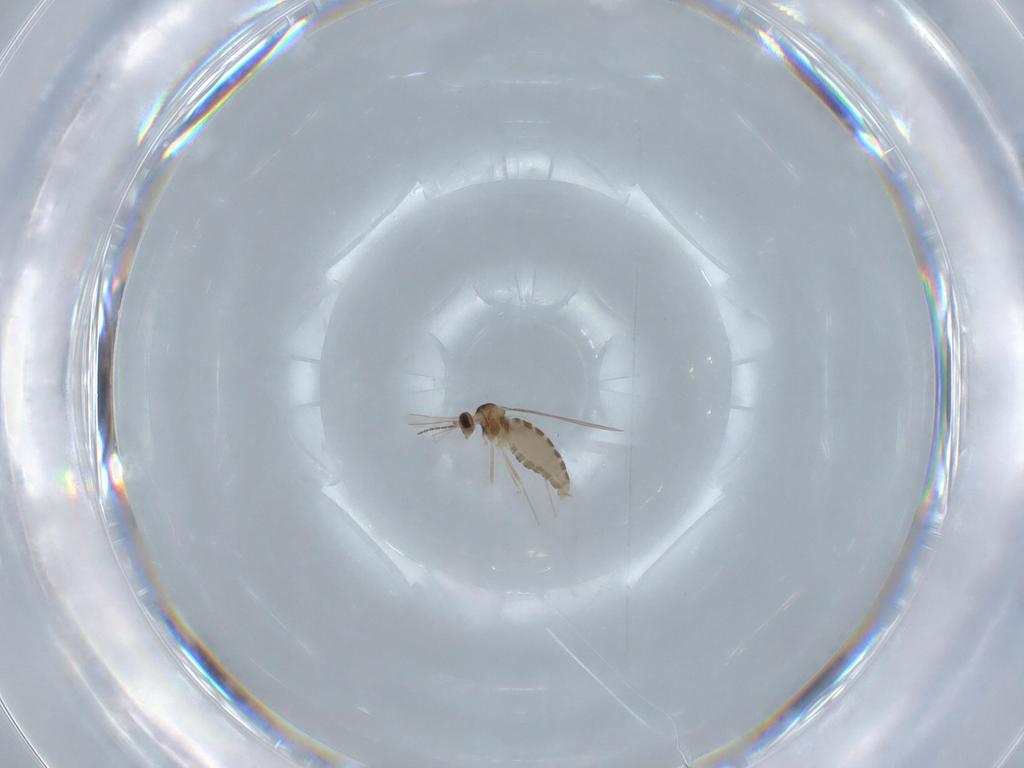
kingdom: Animalia
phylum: Arthropoda
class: Insecta
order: Diptera
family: Cecidomyiidae
